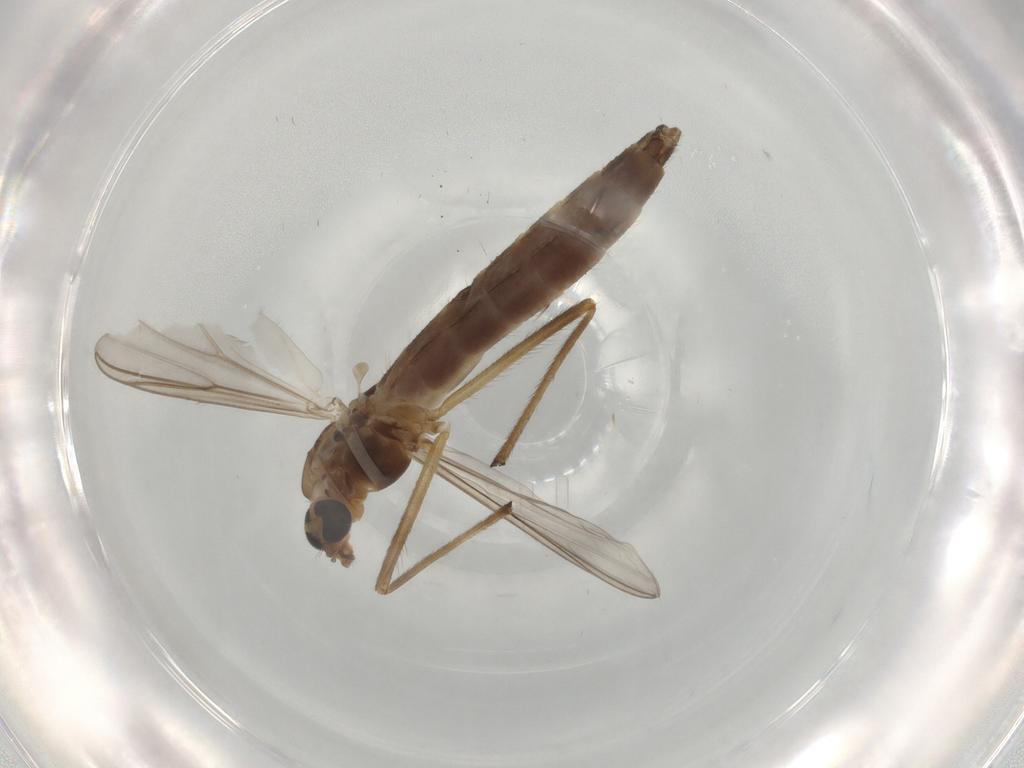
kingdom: Animalia
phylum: Arthropoda
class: Insecta
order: Diptera
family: Chironomidae
